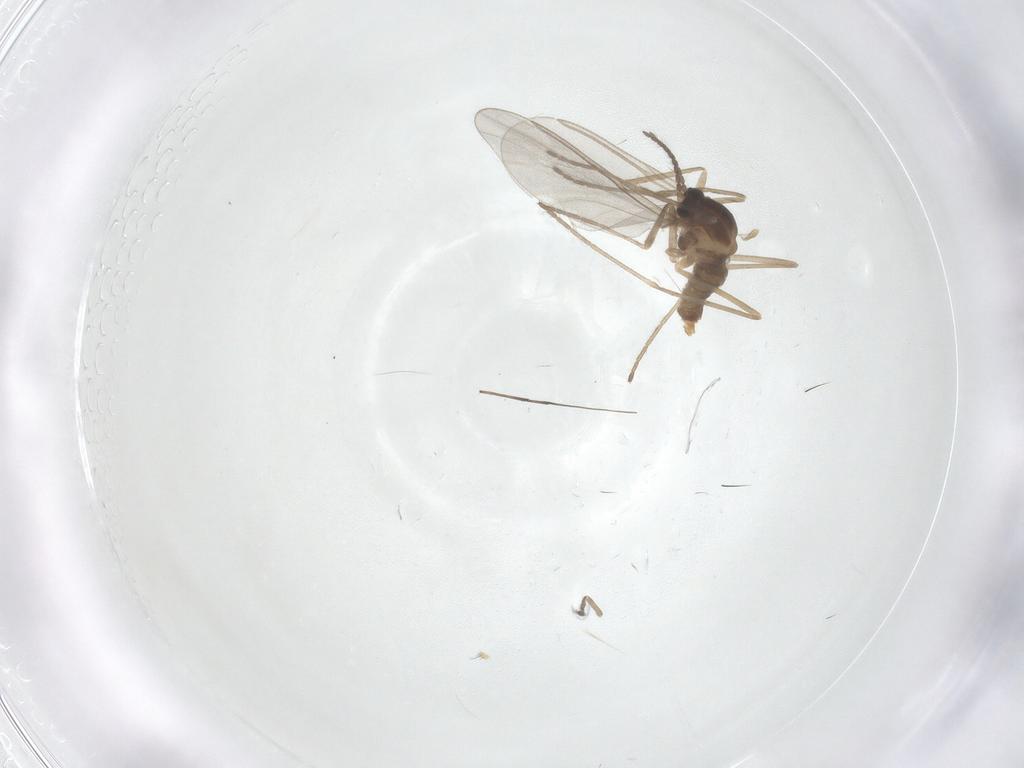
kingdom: Animalia
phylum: Arthropoda
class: Insecta
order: Diptera
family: Cecidomyiidae
